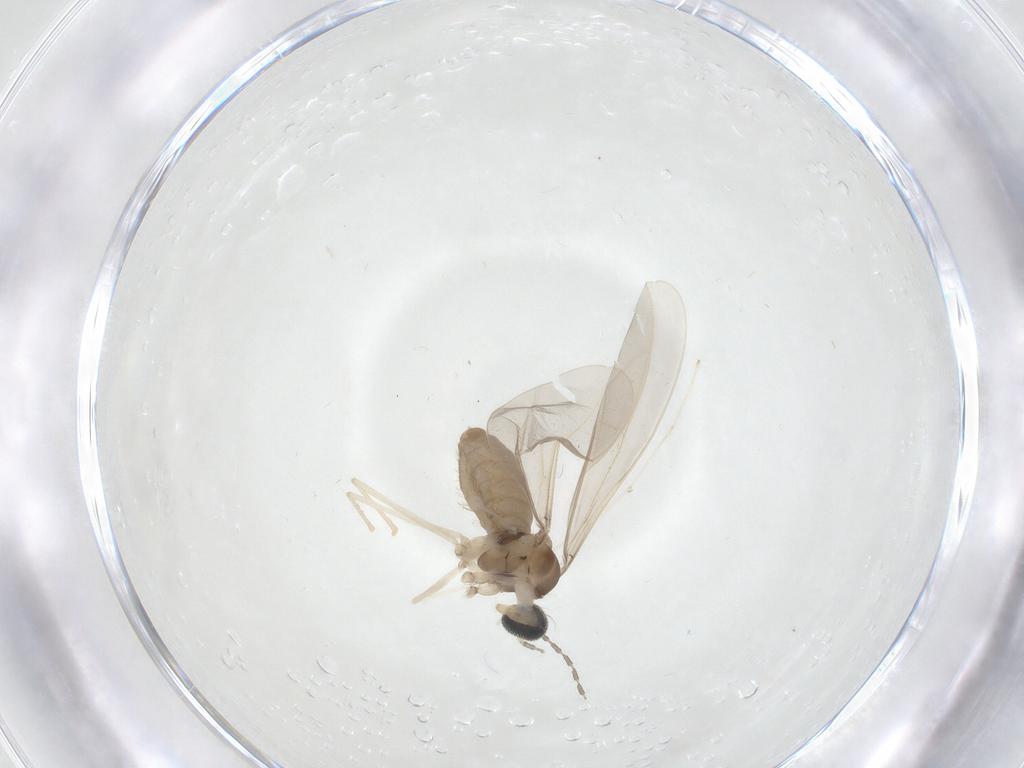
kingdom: Animalia
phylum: Arthropoda
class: Insecta
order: Diptera
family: Cecidomyiidae
